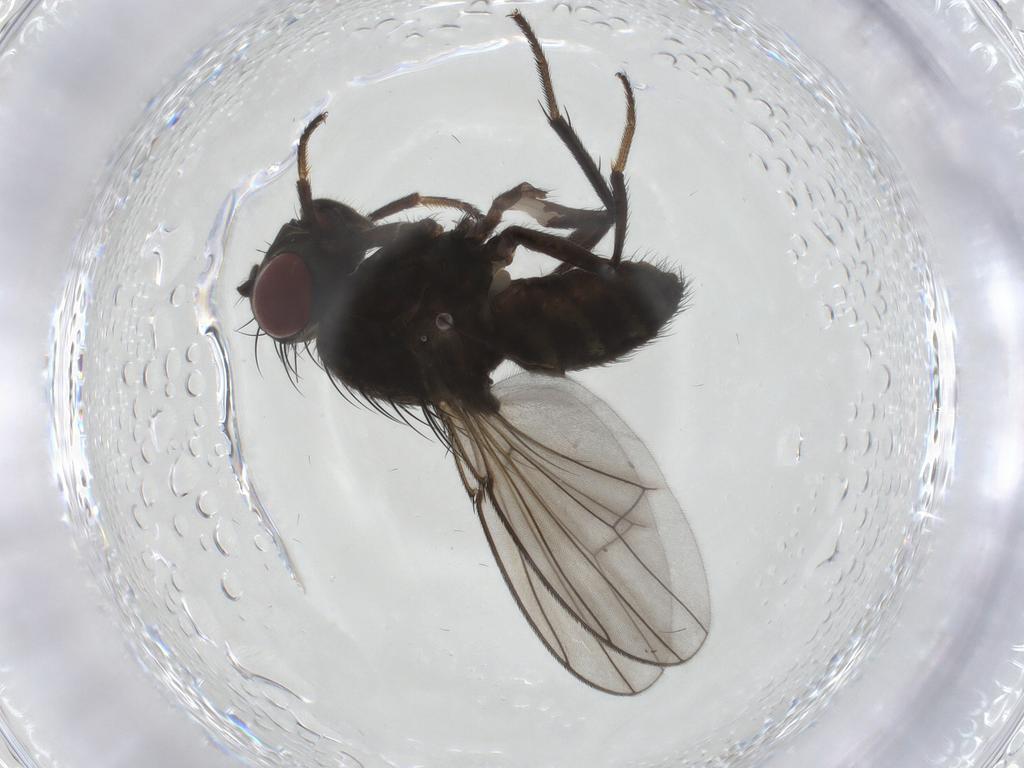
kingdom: Animalia
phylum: Arthropoda
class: Insecta
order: Diptera
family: Ephydridae
